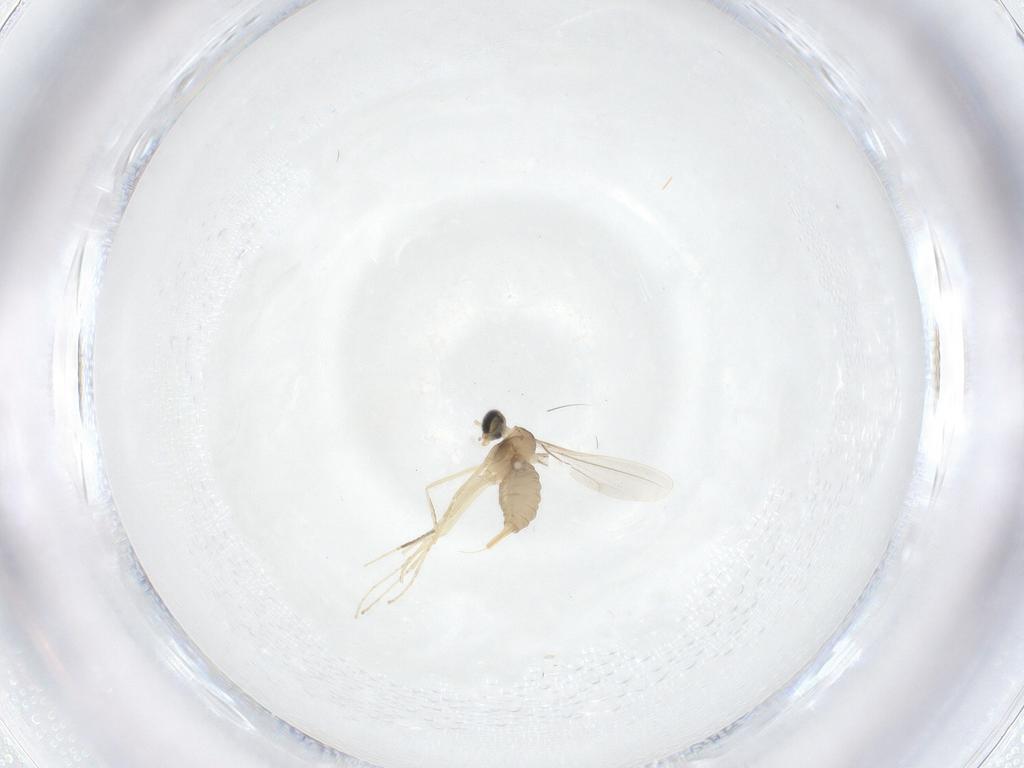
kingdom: Animalia
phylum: Arthropoda
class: Insecta
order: Diptera
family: Cecidomyiidae
